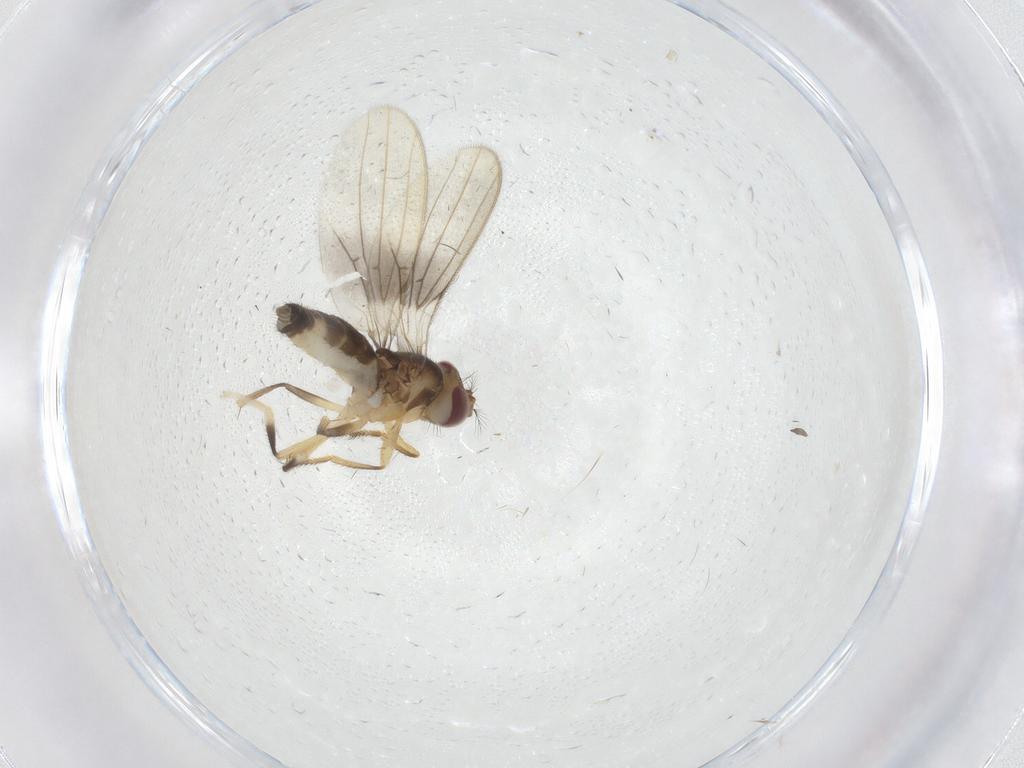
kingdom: Animalia
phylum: Arthropoda
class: Insecta
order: Diptera
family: Periscelididae
